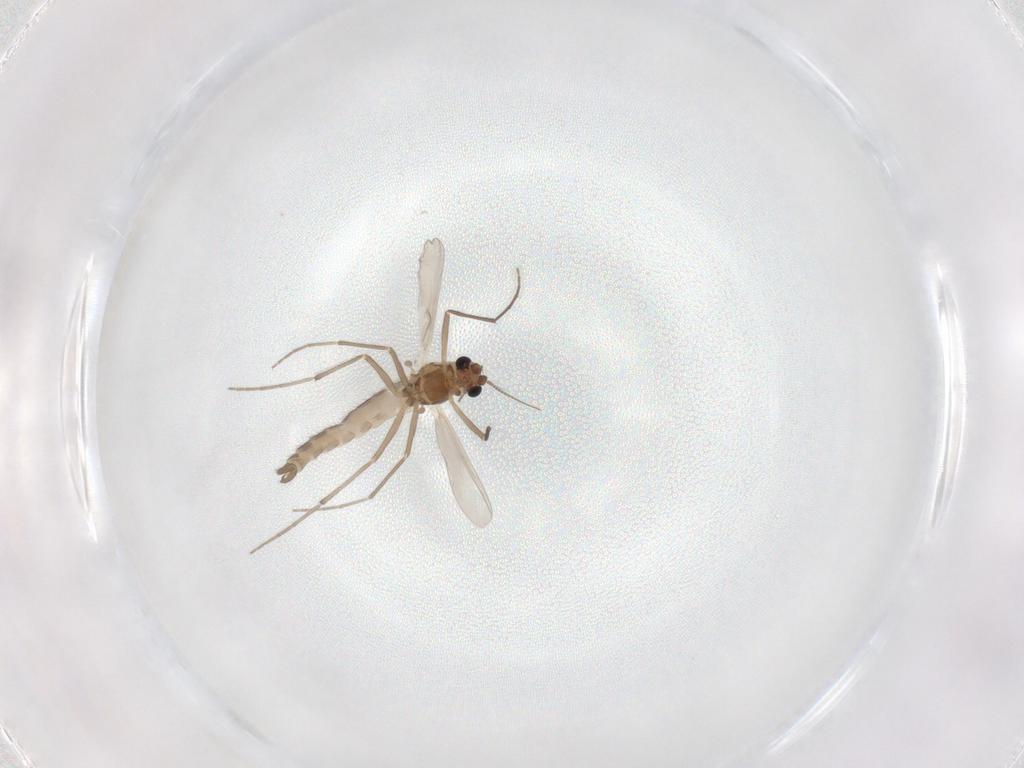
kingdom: Animalia
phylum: Arthropoda
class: Insecta
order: Diptera
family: Chironomidae
